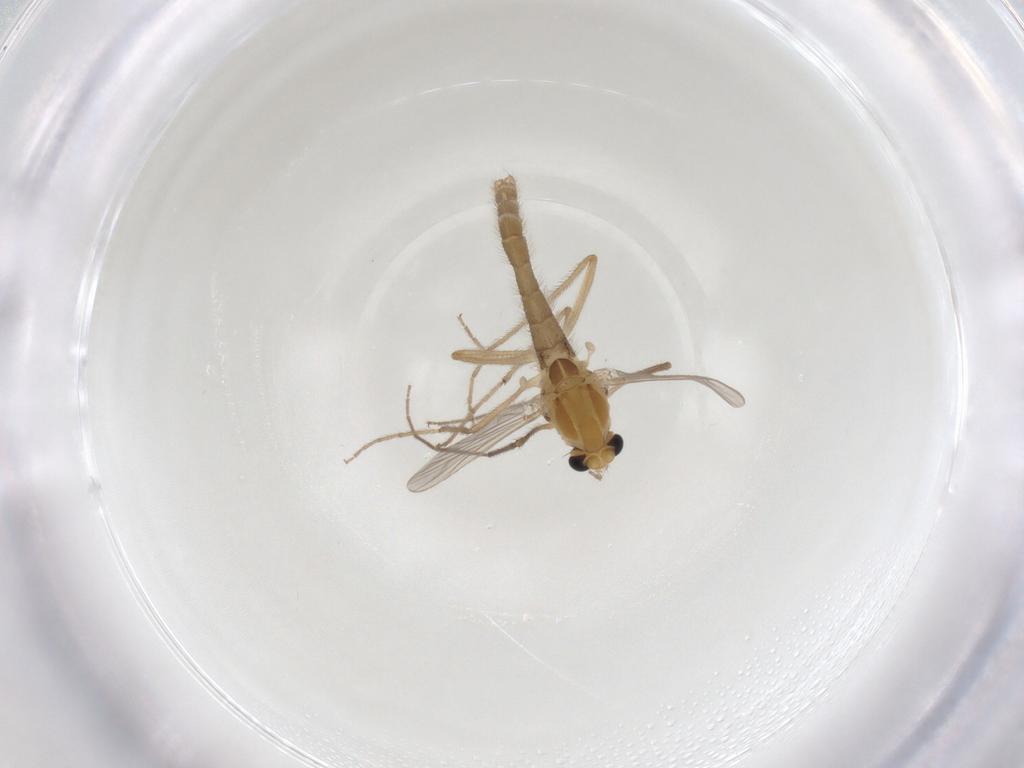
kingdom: Animalia
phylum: Arthropoda
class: Insecta
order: Diptera
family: Chironomidae
